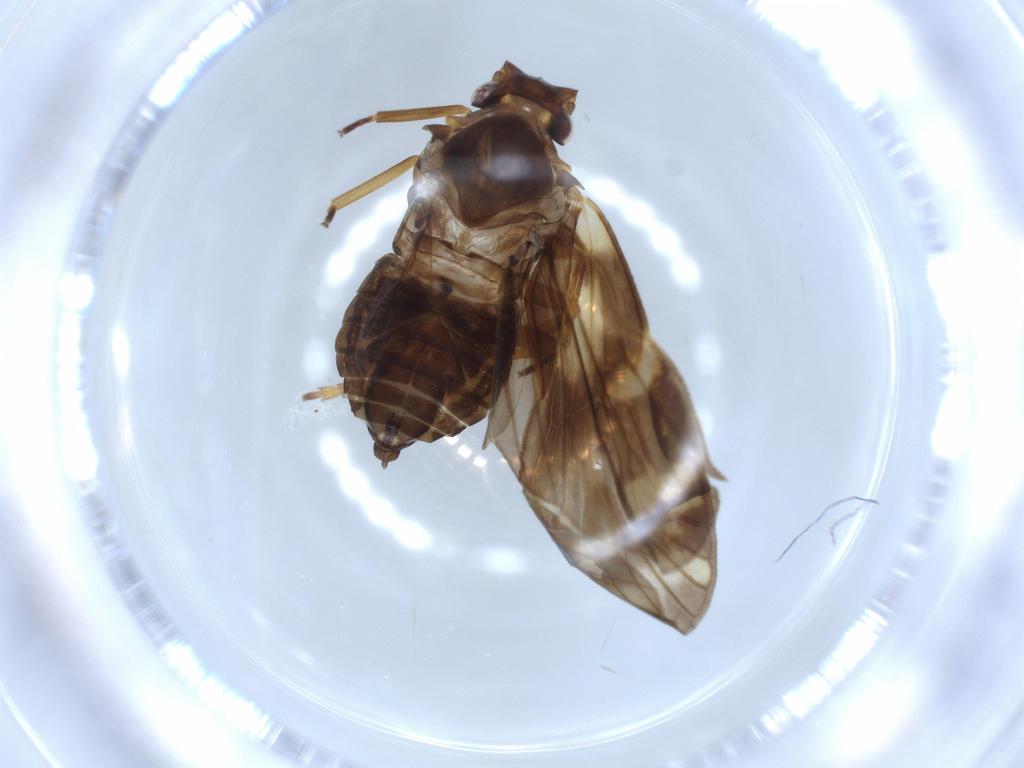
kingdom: Animalia
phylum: Arthropoda
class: Insecta
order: Hemiptera
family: Cixiidae
